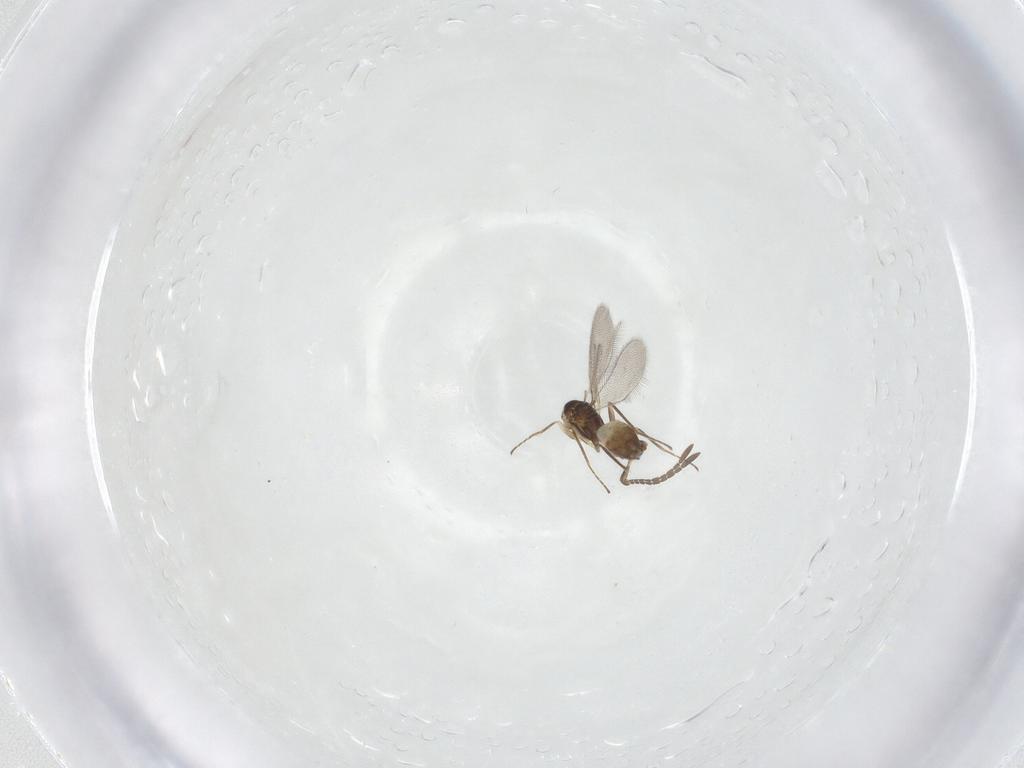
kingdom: Animalia
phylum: Arthropoda
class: Insecta
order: Hymenoptera
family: Mymaridae
